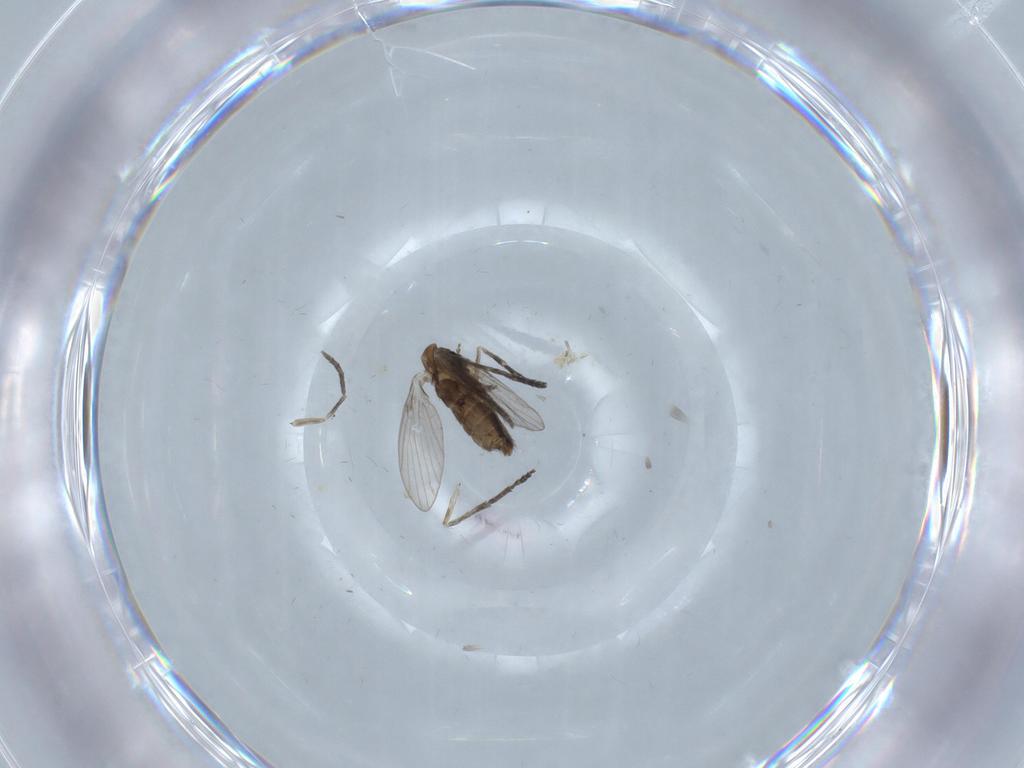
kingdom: Animalia
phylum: Arthropoda
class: Insecta
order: Diptera
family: Psychodidae
